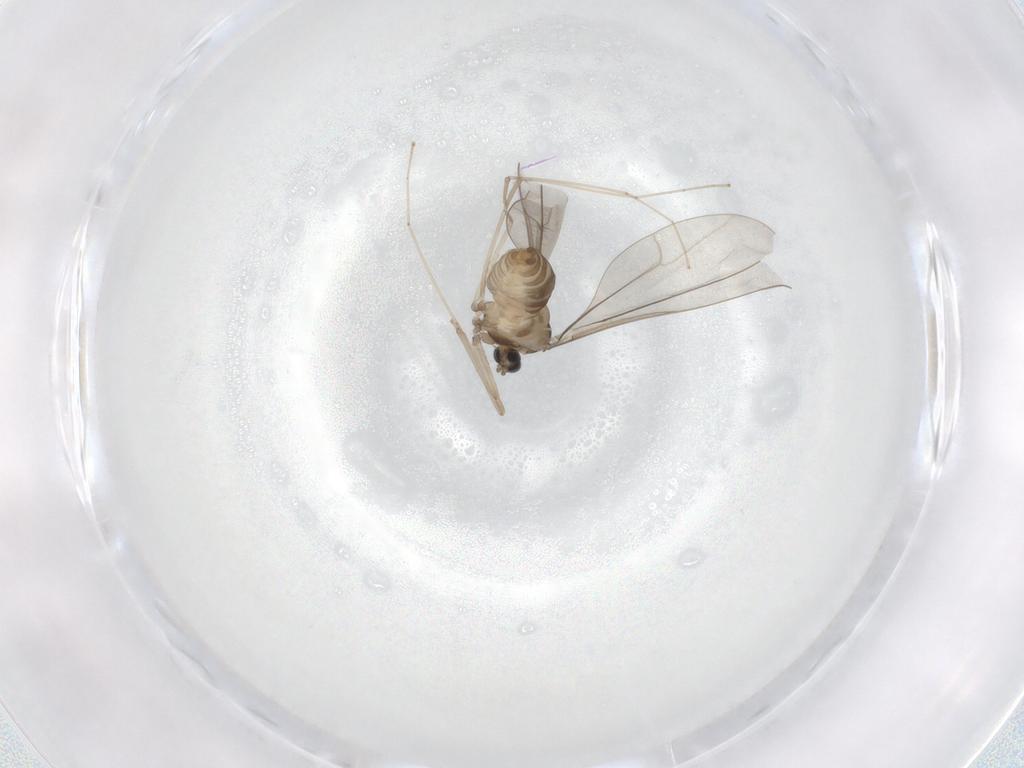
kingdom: Animalia
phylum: Arthropoda
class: Insecta
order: Diptera
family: Cecidomyiidae
